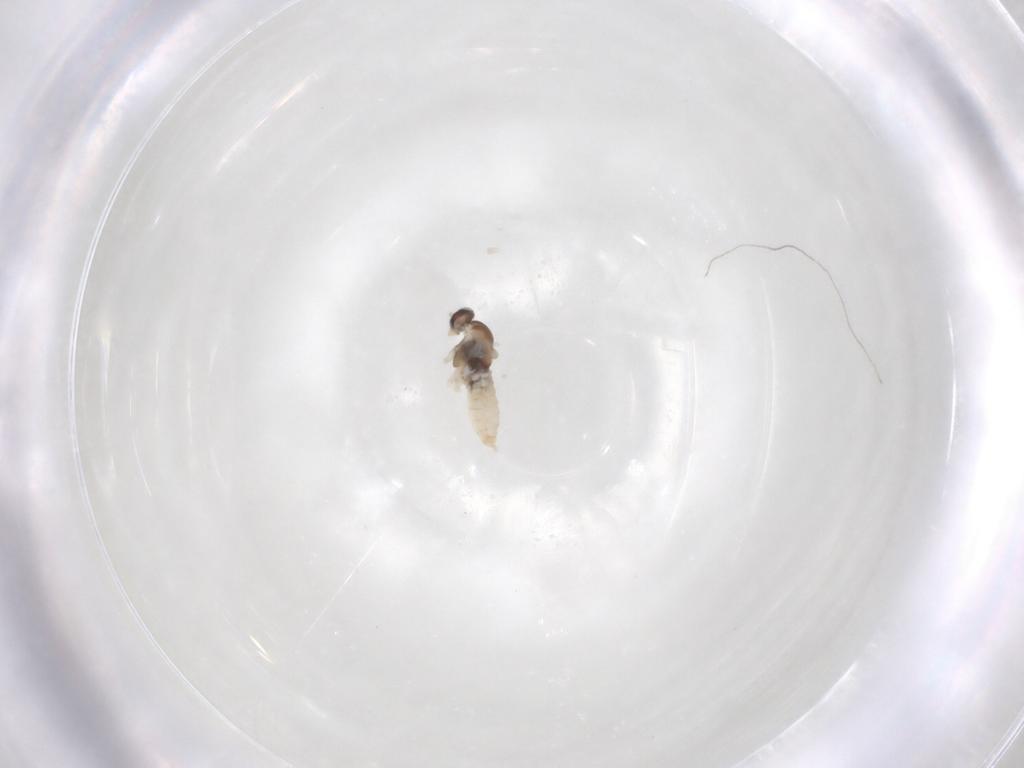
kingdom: Animalia
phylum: Arthropoda
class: Insecta
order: Diptera
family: Cecidomyiidae
